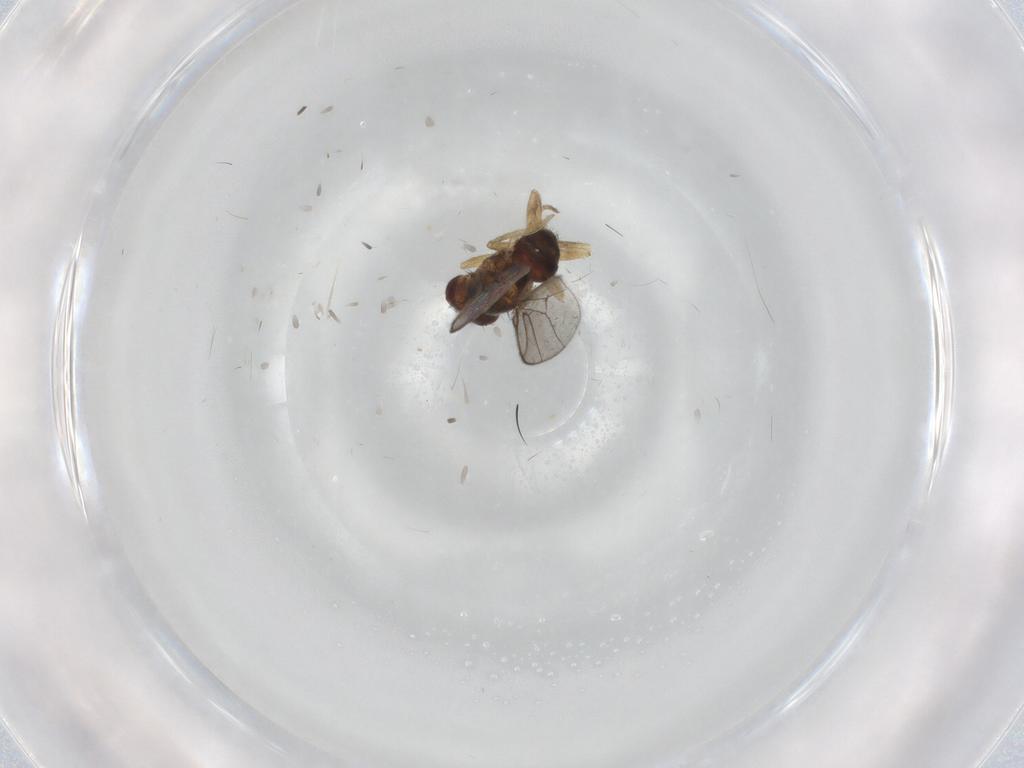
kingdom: Animalia
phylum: Arthropoda
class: Insecta
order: Diptera
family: Chloropidae
